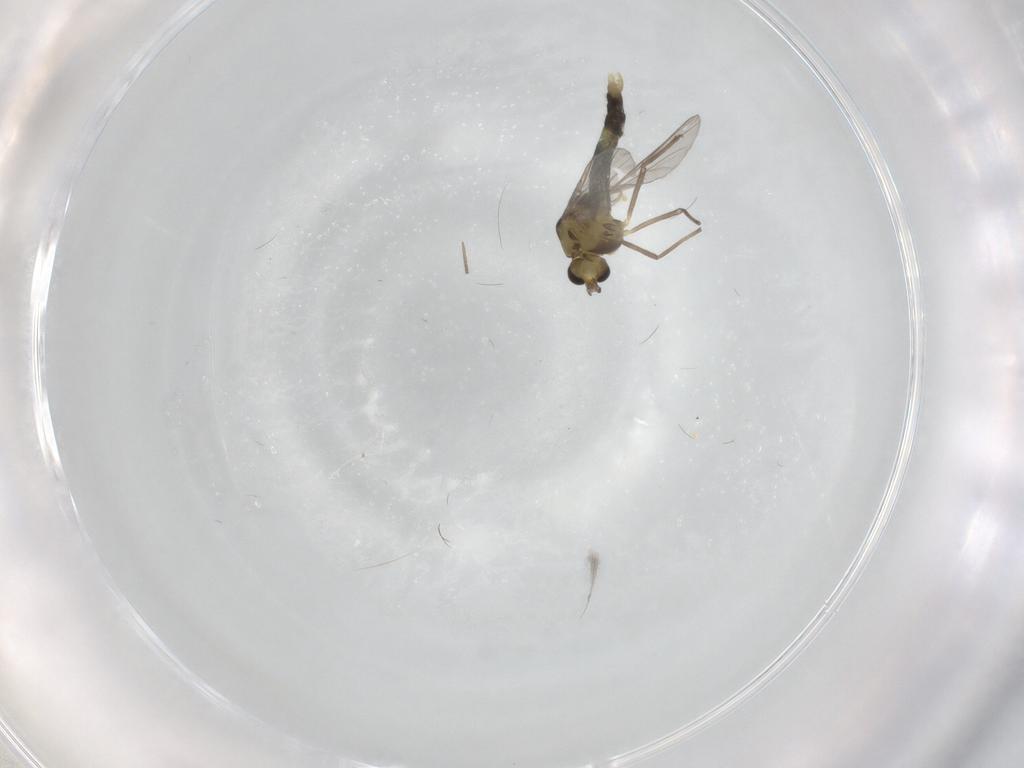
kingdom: Animalia
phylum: Arthropoda
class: Insecta
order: Diptera
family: Chironomidae
